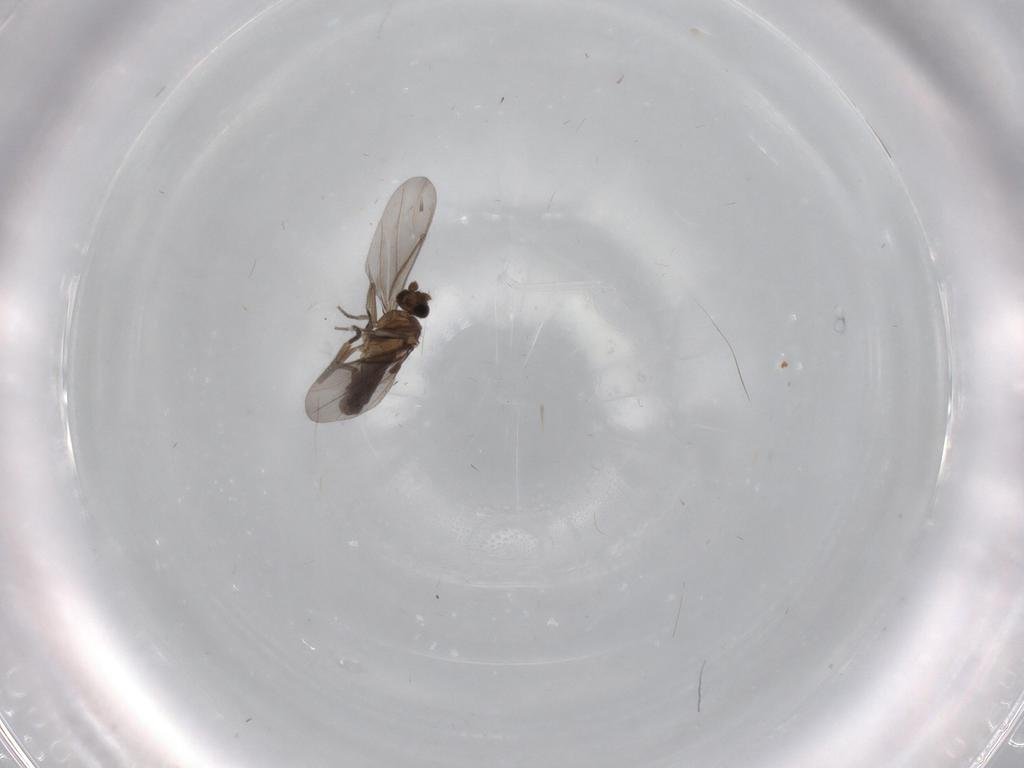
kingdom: Animalia
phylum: Arthropoda
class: Insecta
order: Diptera
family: Phoridae
